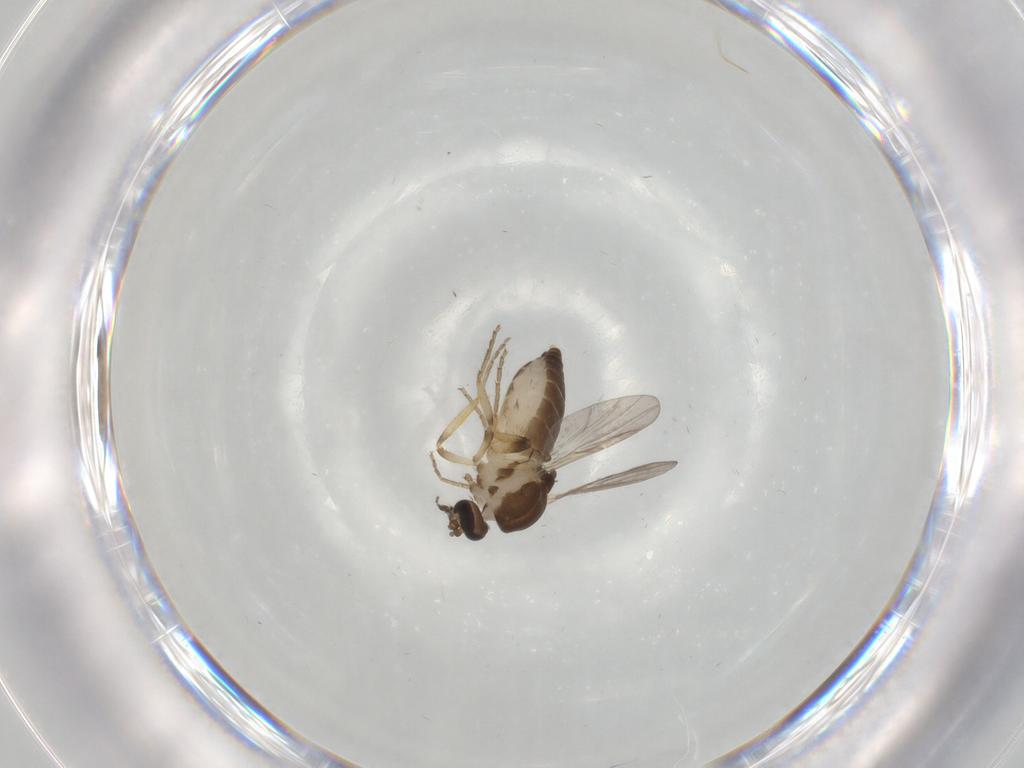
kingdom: Animalia
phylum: Arthropoda
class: Insecta
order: Diptera
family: Ceratopogonidae
